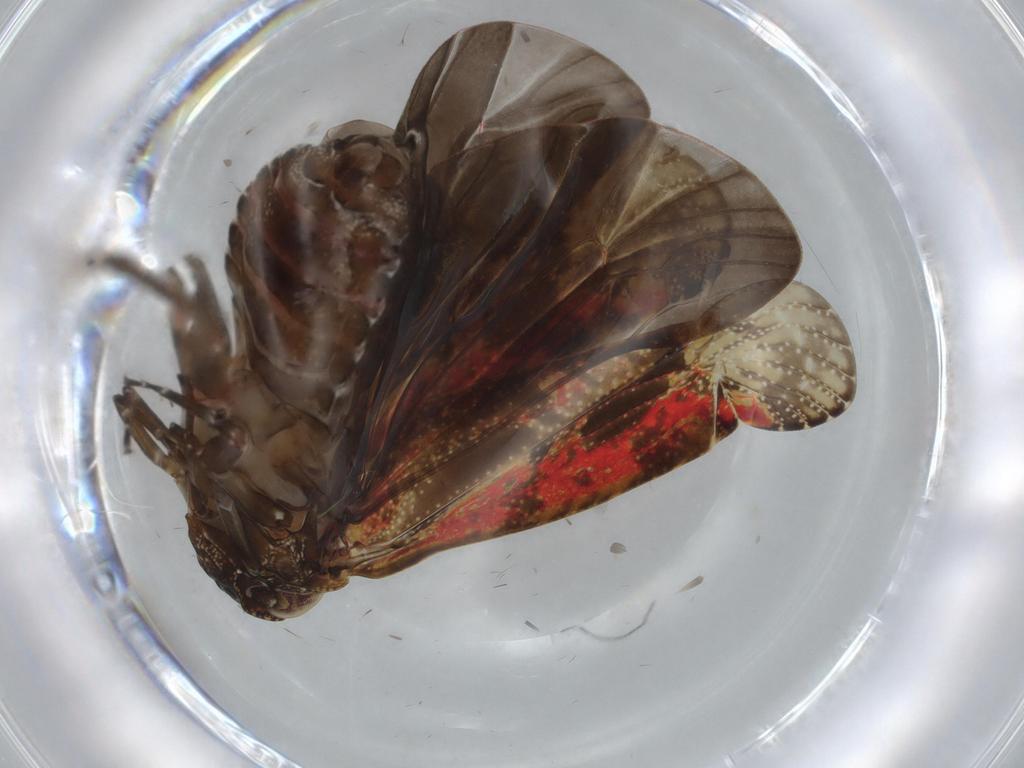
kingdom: Animalia
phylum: Arthropoda
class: Insecta
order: Hemiptera
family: Achilidae
